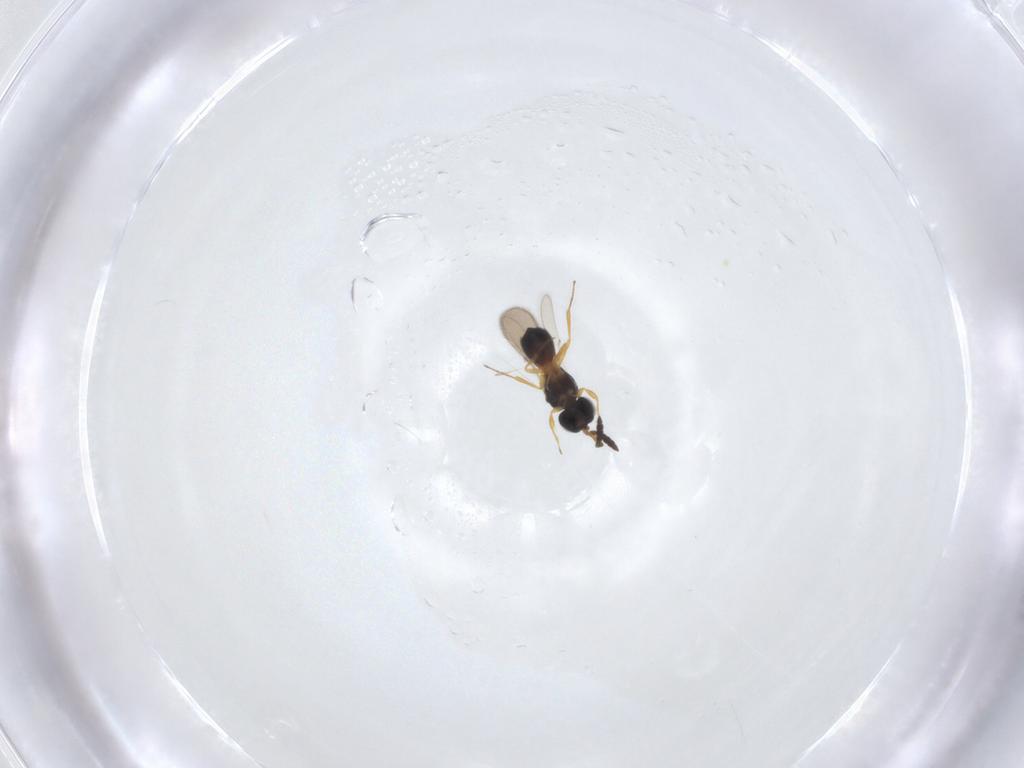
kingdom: Animalia
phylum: Arthropoda
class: Insecta
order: Hymenoptera
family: Scelionidae
